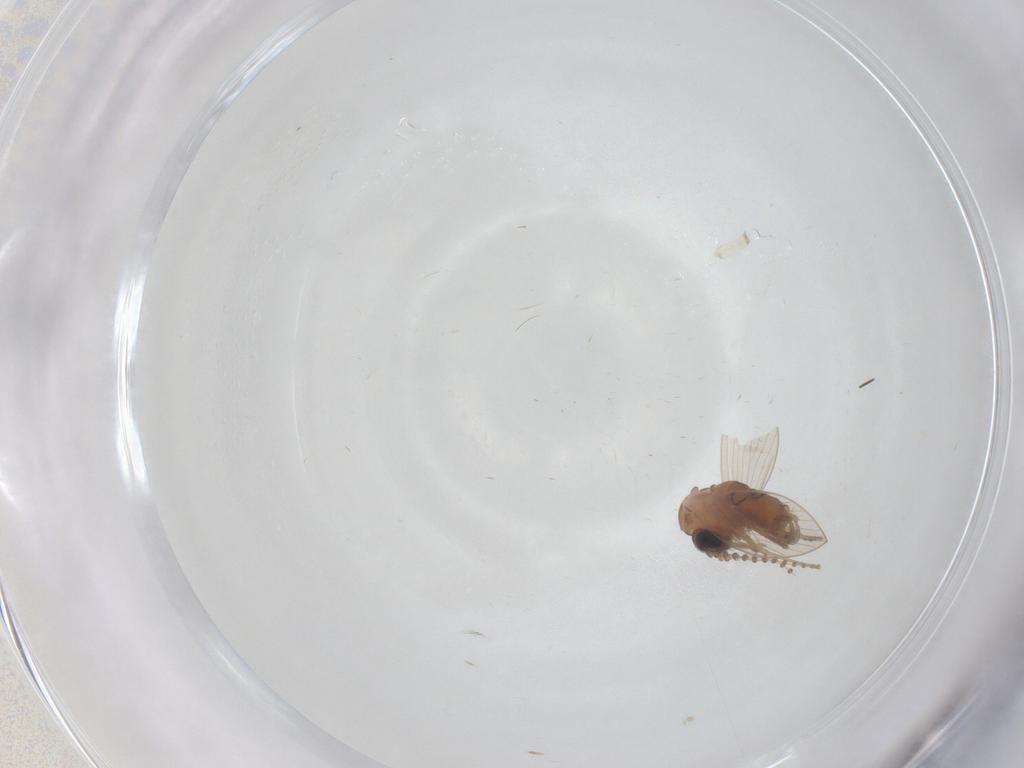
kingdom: Animalia
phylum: Arthropoda
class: Insecta
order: Diptera
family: Psychodidae
